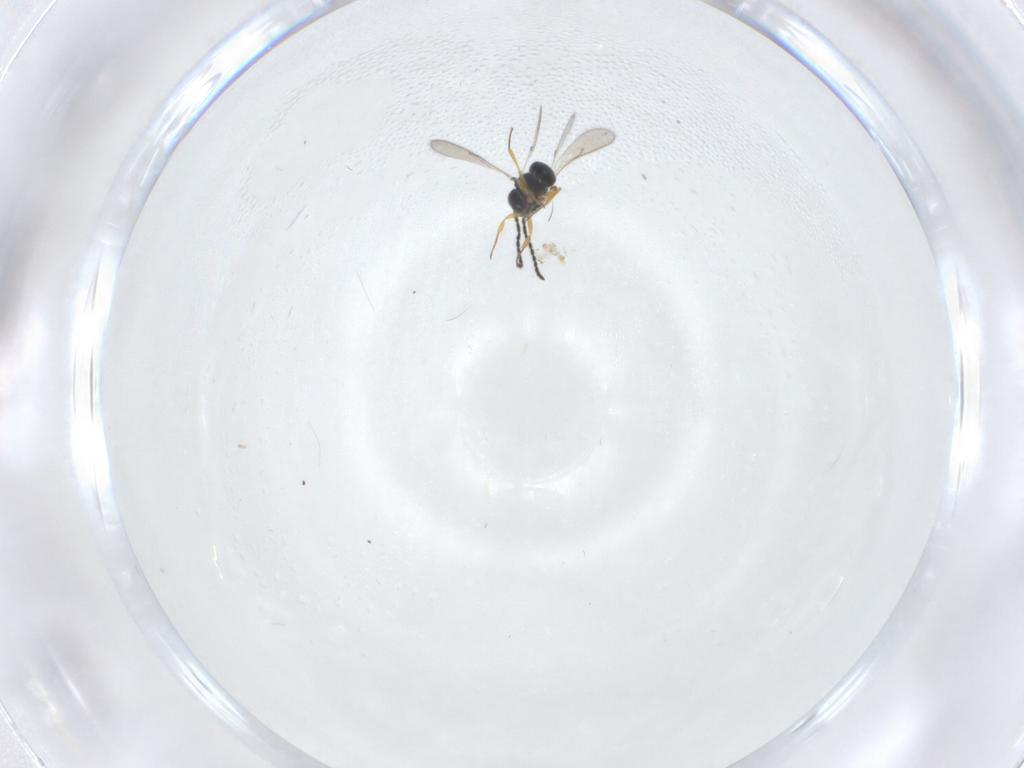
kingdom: Animalia
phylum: Arthropoda
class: Insecta
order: Hymenoptera
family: Scelionidae
